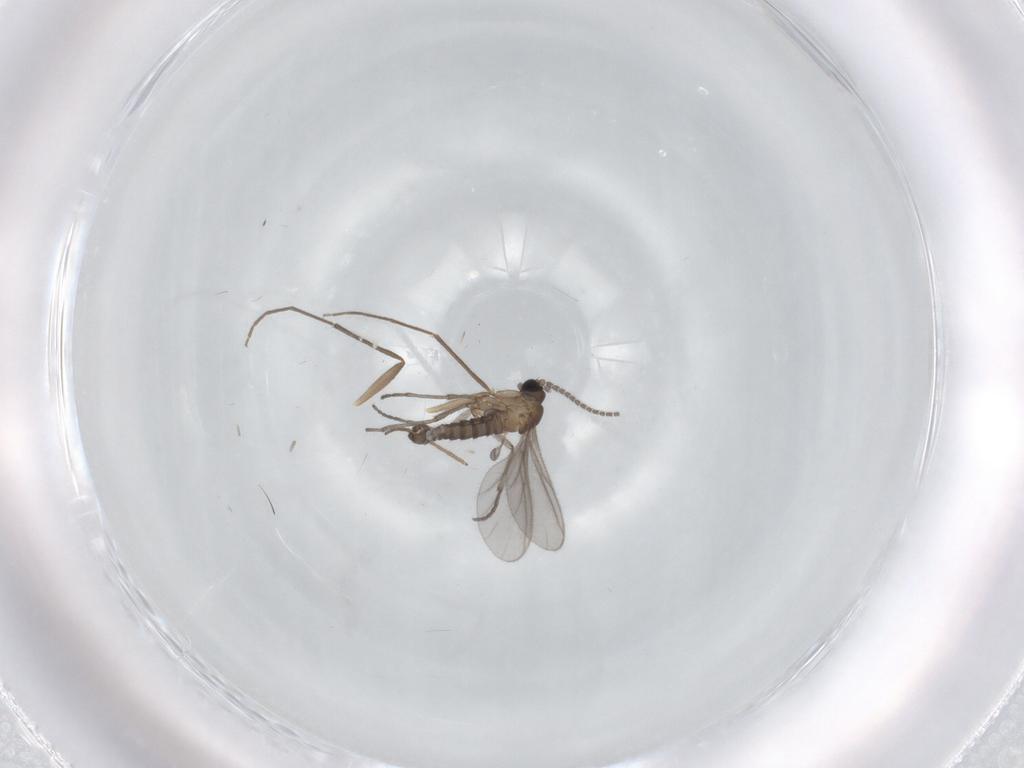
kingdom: Animalia
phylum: Arthropoda
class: Insecta
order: Diptera
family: Sciaridae
